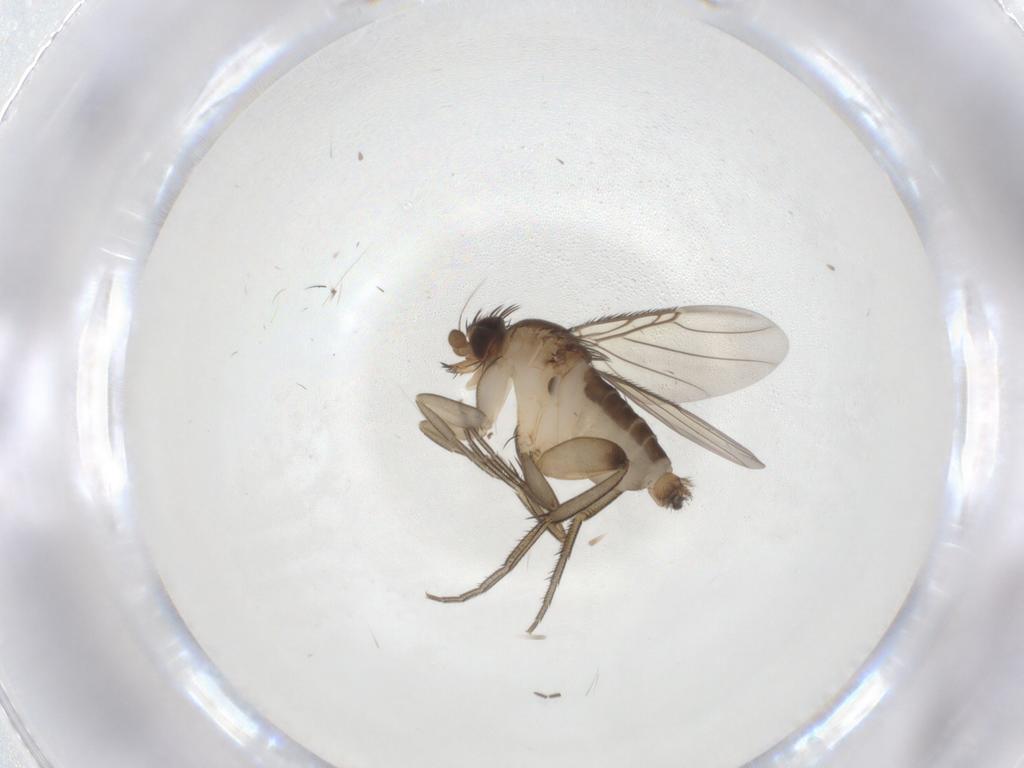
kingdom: Animalia
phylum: Arthropoda
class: Insecta
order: Diptera
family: Phoridae
